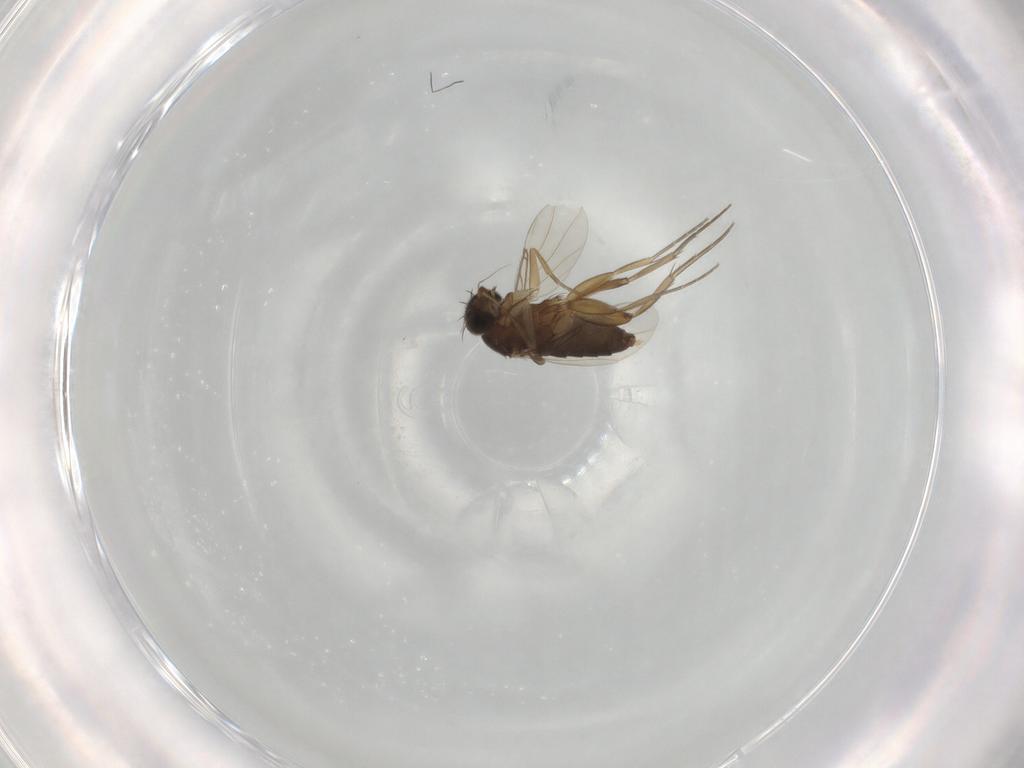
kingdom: Animalia
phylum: Arthropoda
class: Insecta
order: Diptera
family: Phoridae
